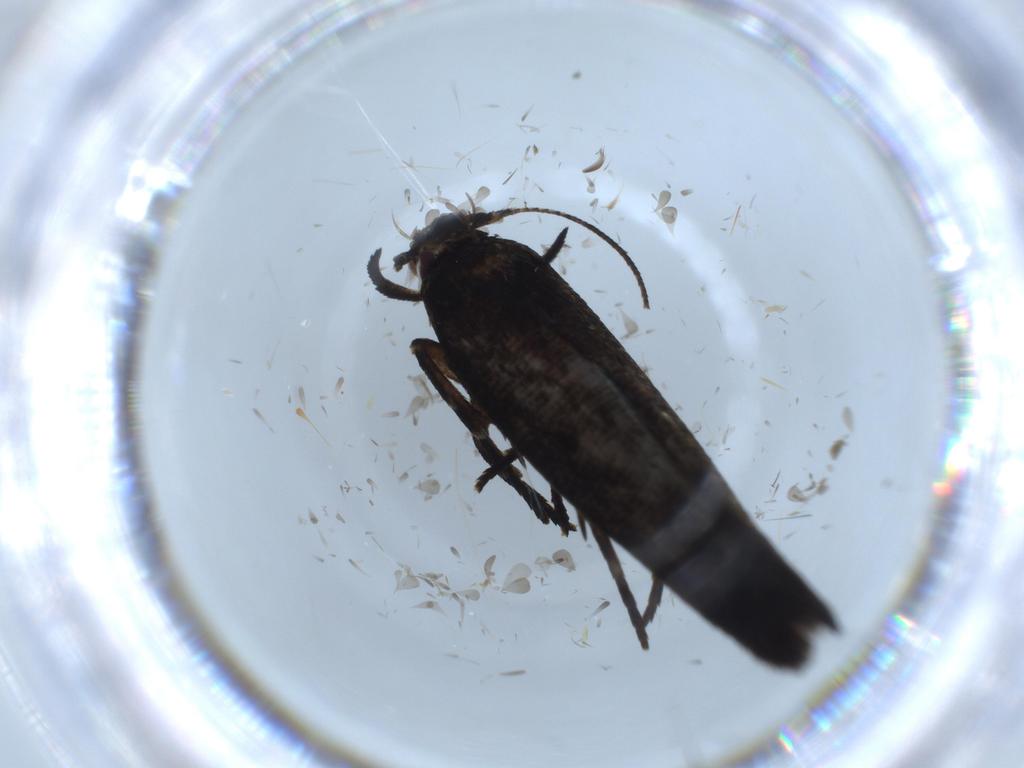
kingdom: Animalia
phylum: Arthropoda
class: Insecta
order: Lepidoptera
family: Cosmopterigidae
